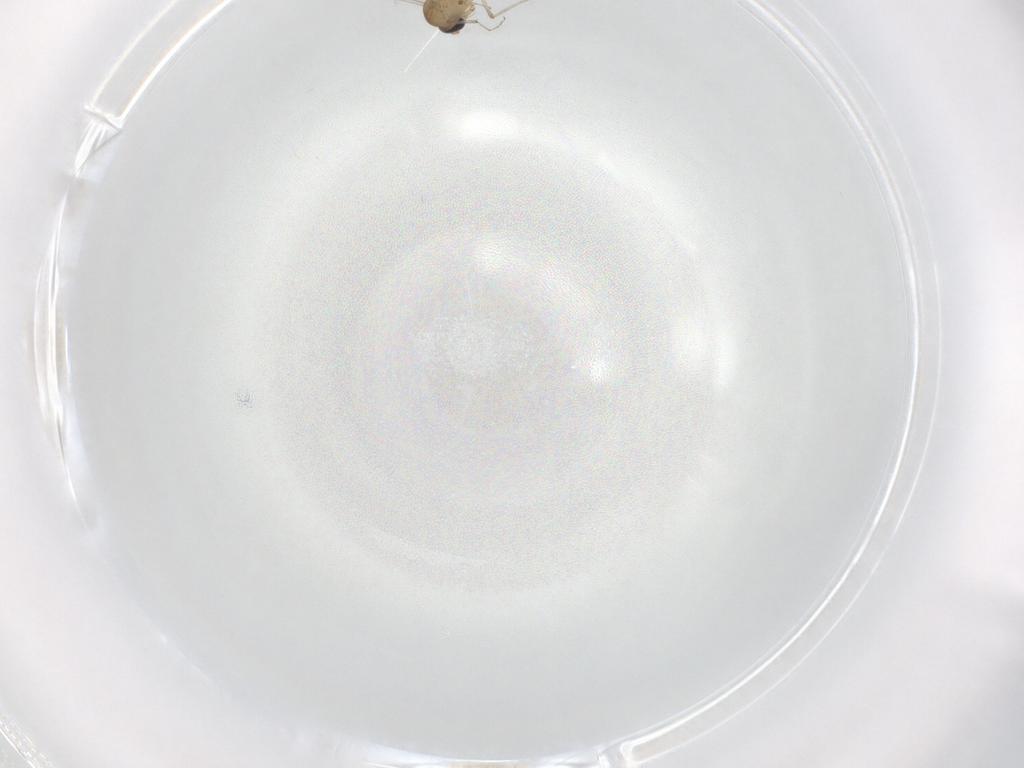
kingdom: Animalia
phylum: Arthropoda
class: Insecta
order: Diptera
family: Ceratopogonidae
